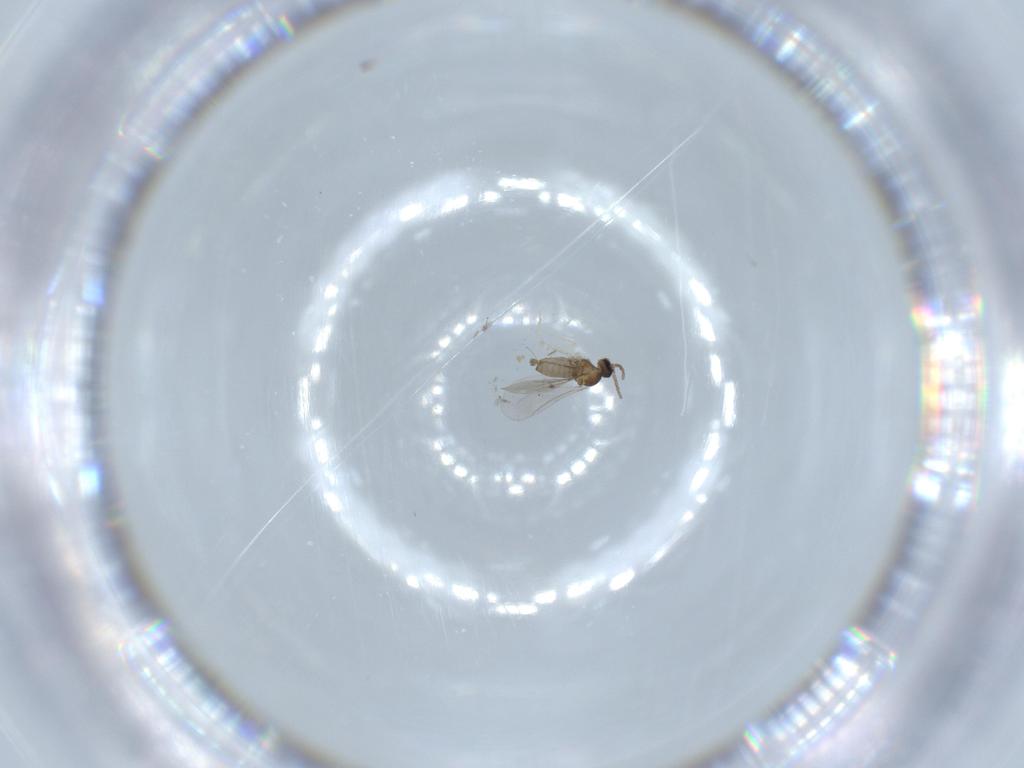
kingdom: Animalia
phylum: Arthropoda
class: Insecta
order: Diptera
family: Cecidomyiidae
